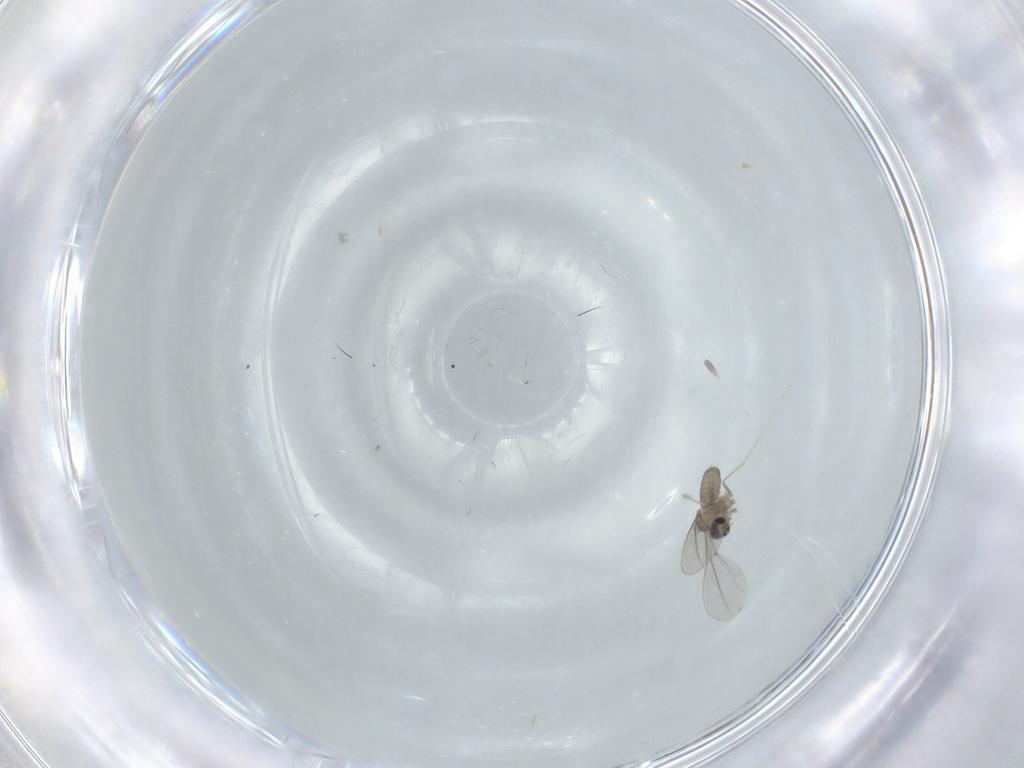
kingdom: Animalia
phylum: Arthropoda
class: Insecta
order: Diptera
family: Cecidomyiidae
